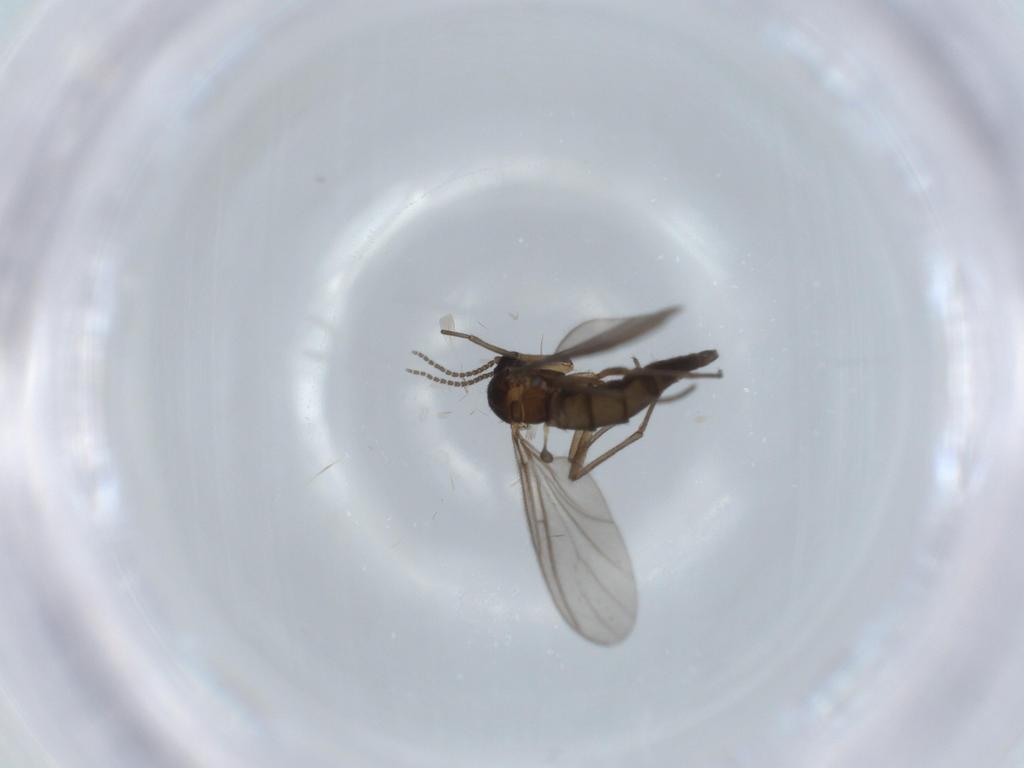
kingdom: Animalia
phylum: Arthropoda
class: Insecta
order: Diptera
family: Sciaridae
